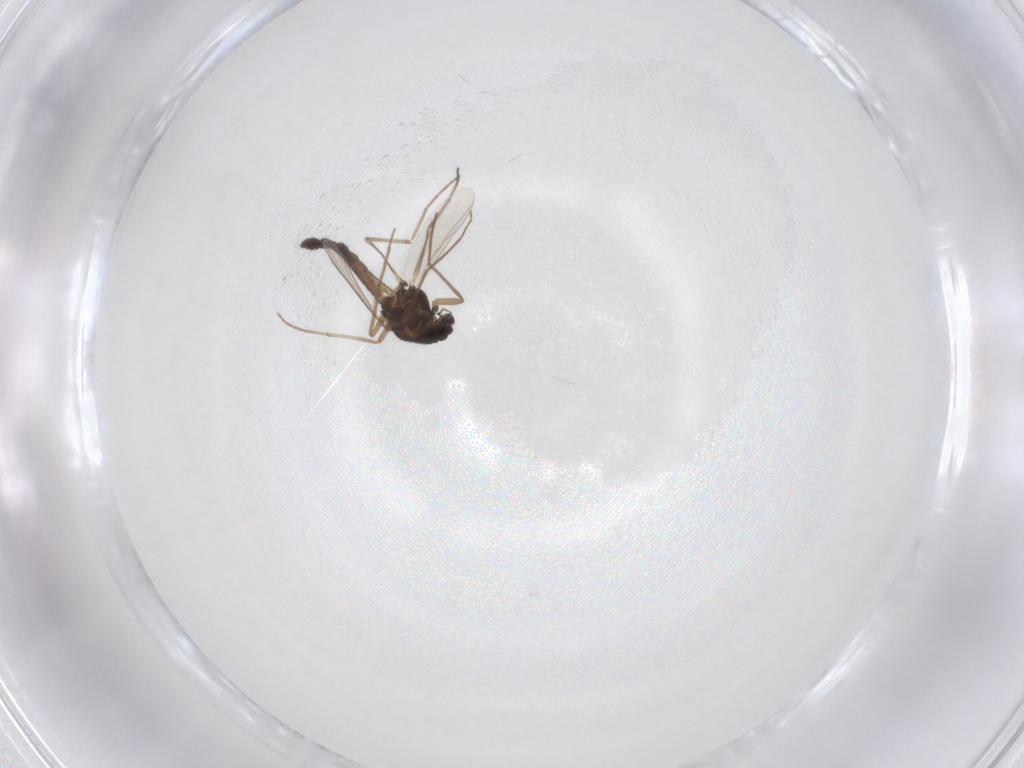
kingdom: Animalia
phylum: Arthropoda
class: Insecta
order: Diptera
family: Chironomidae
